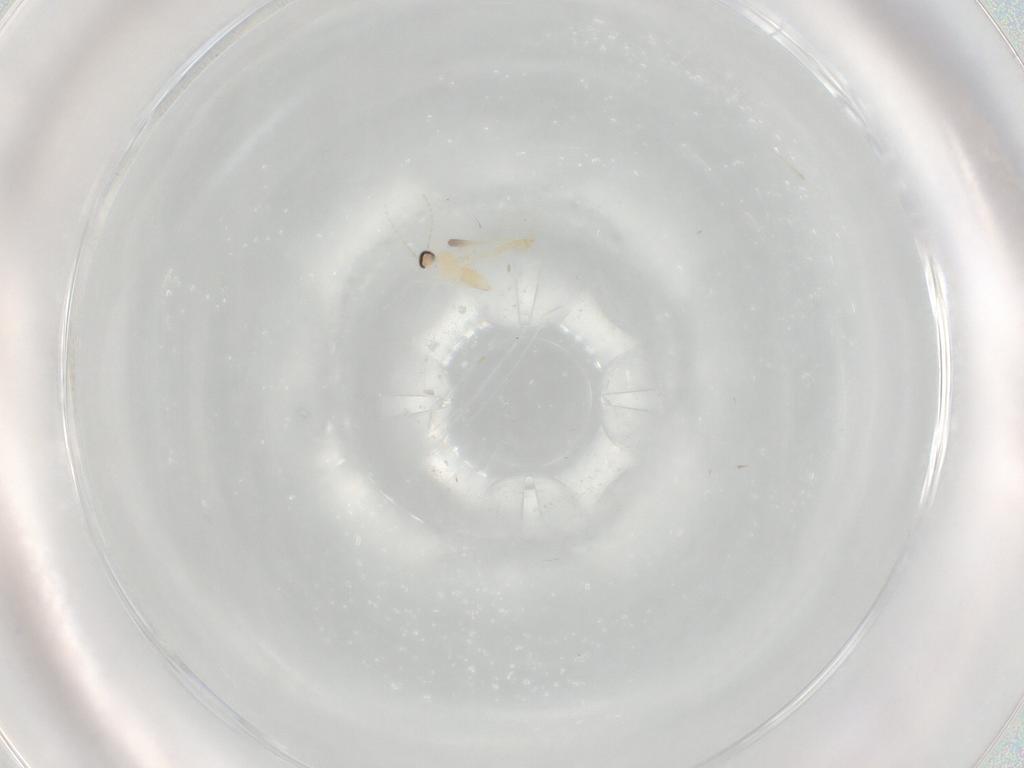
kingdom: Animalia
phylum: Arthropoda
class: Insecta
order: Diptera
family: Cecidomyiidae
